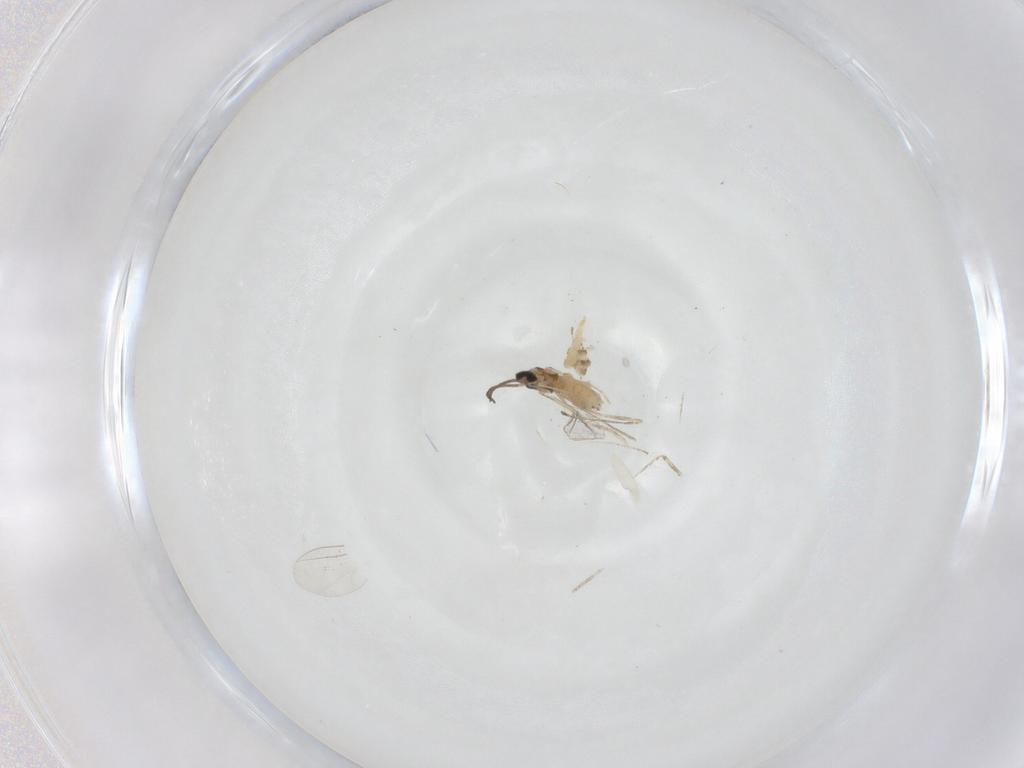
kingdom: Animalia
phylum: Arthropoda
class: Insecta
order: Diptera
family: Cecidomyiidae
